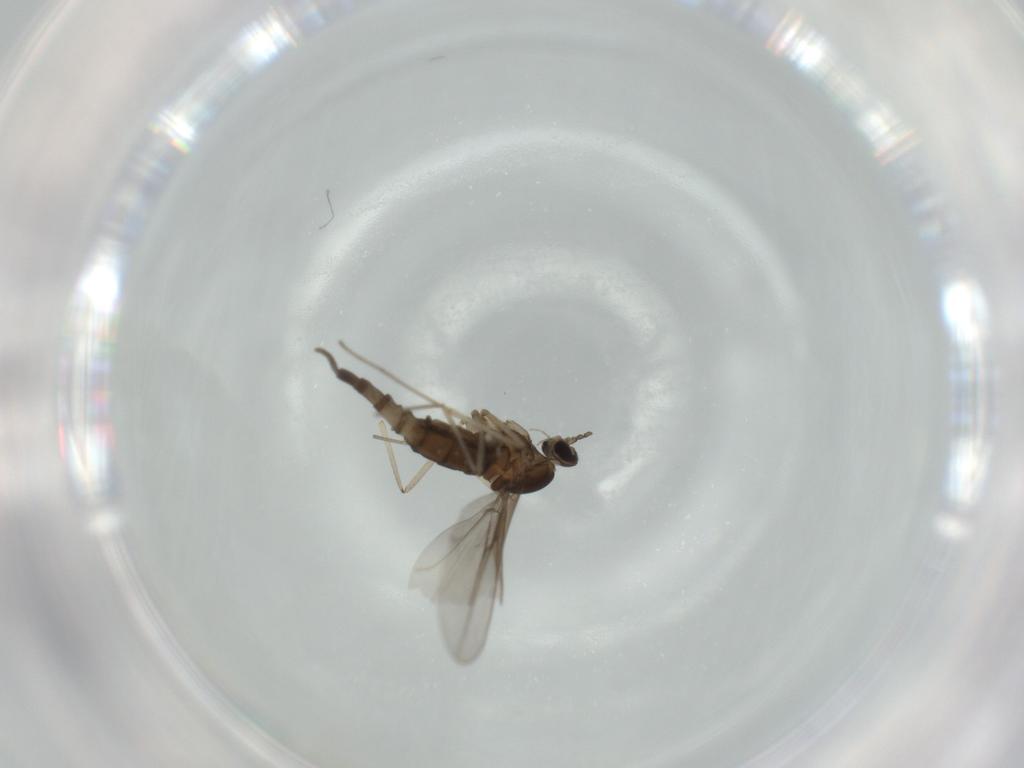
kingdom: Animalia
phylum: Arthropoda
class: Insecta
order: Diptera
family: Cecidomyiidae
